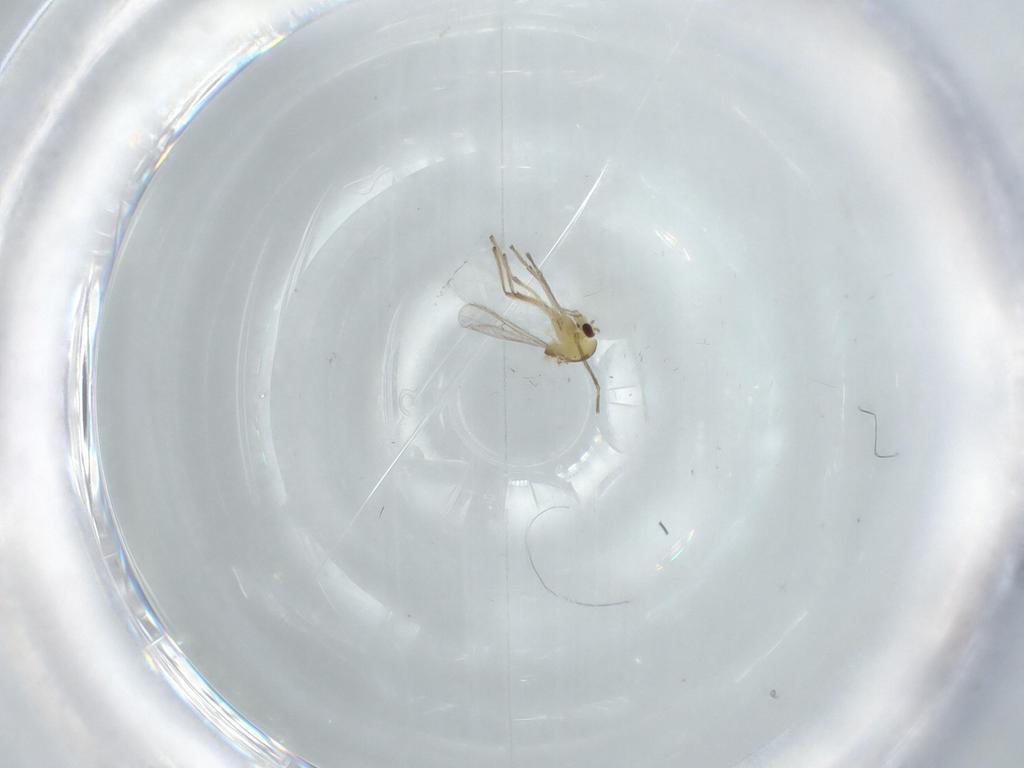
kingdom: Animalia
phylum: Arthropoda
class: Insecta
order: Diptera
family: Chironomidae
